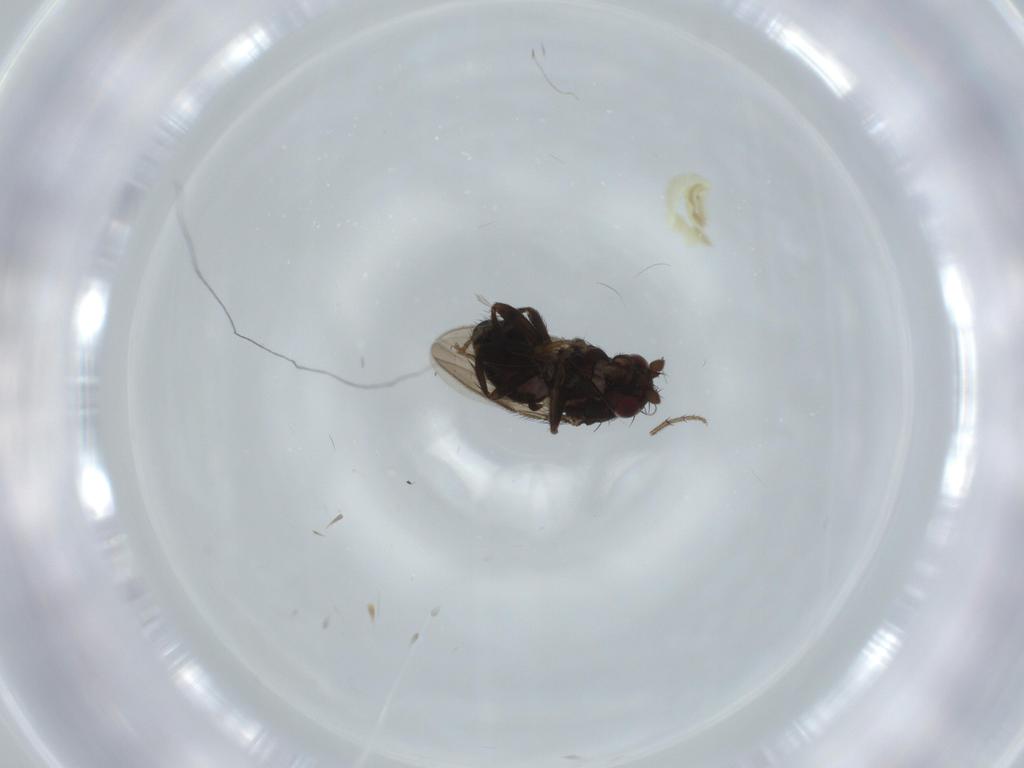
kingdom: Animalia
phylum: Arthropoda
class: Insecta
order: Diptera
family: Sphaeroceridae
